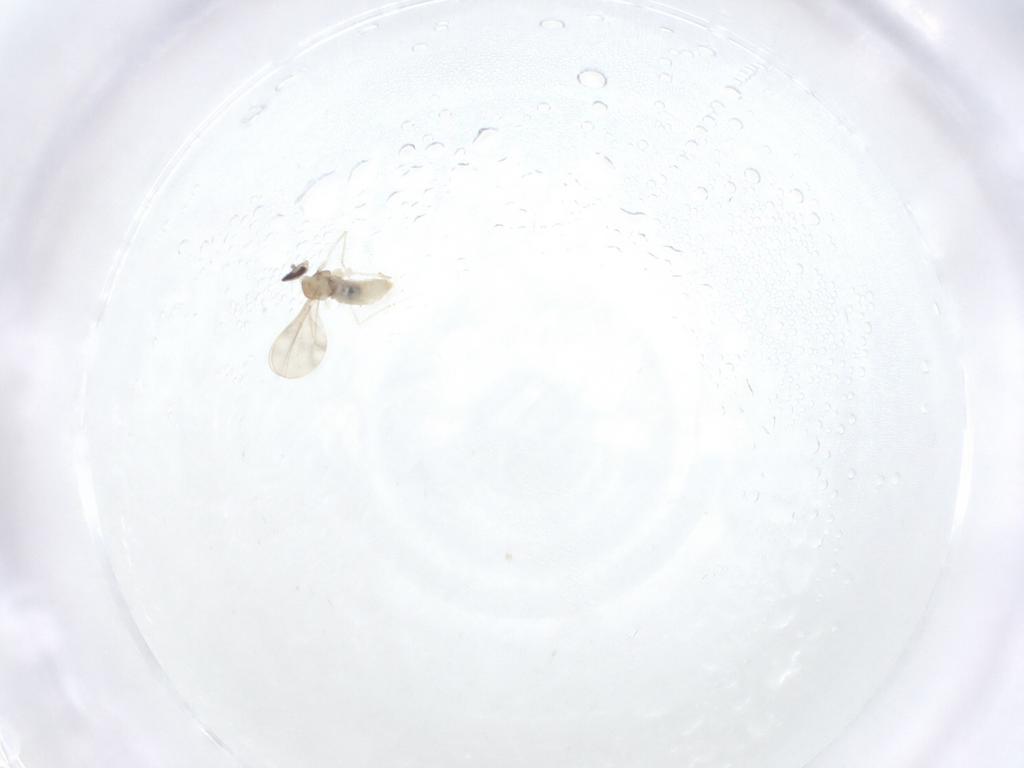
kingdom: Animalia
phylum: Arthropoda
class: Insecta
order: Diptera
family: Cecidomyiidae
